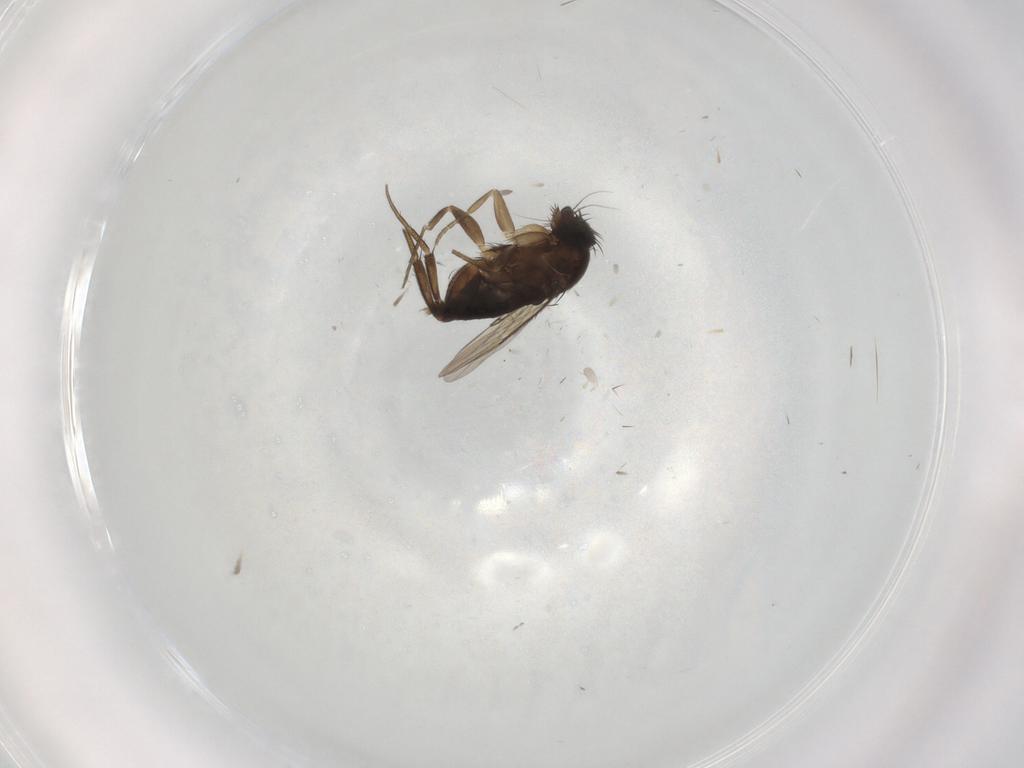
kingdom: Animalia
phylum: Arthropoda
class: Insecta
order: Diptera
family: Phoridae
